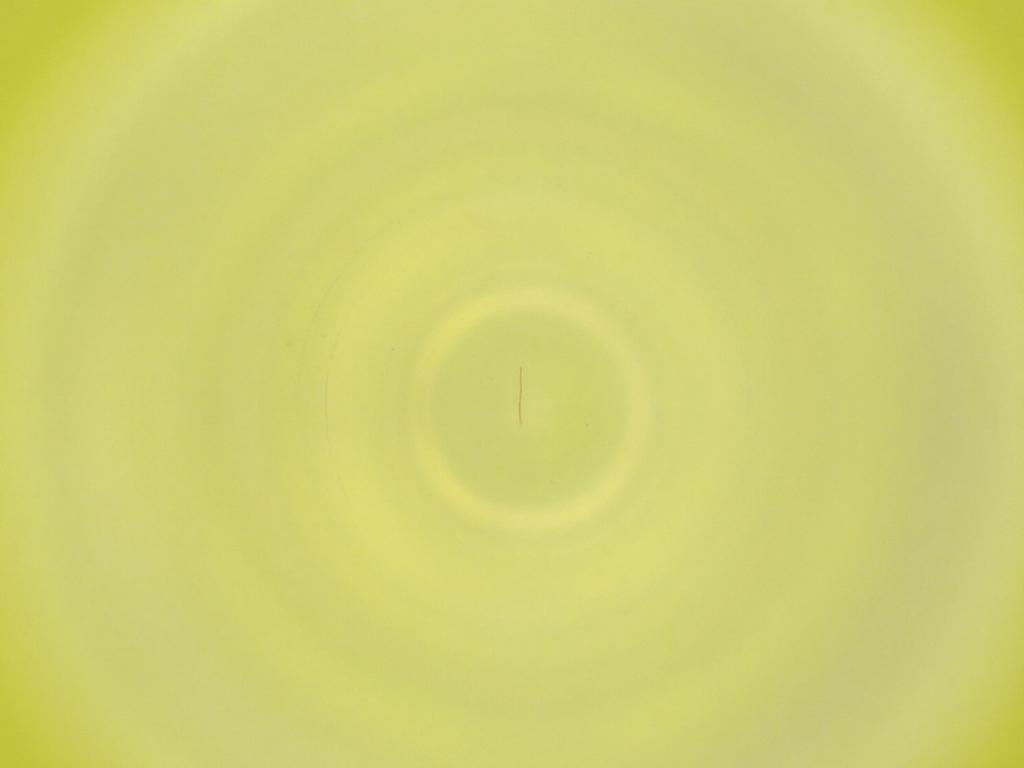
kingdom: Animalia
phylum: Arthropoda
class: Insecta
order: Diptera
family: Cecidomyiidae
